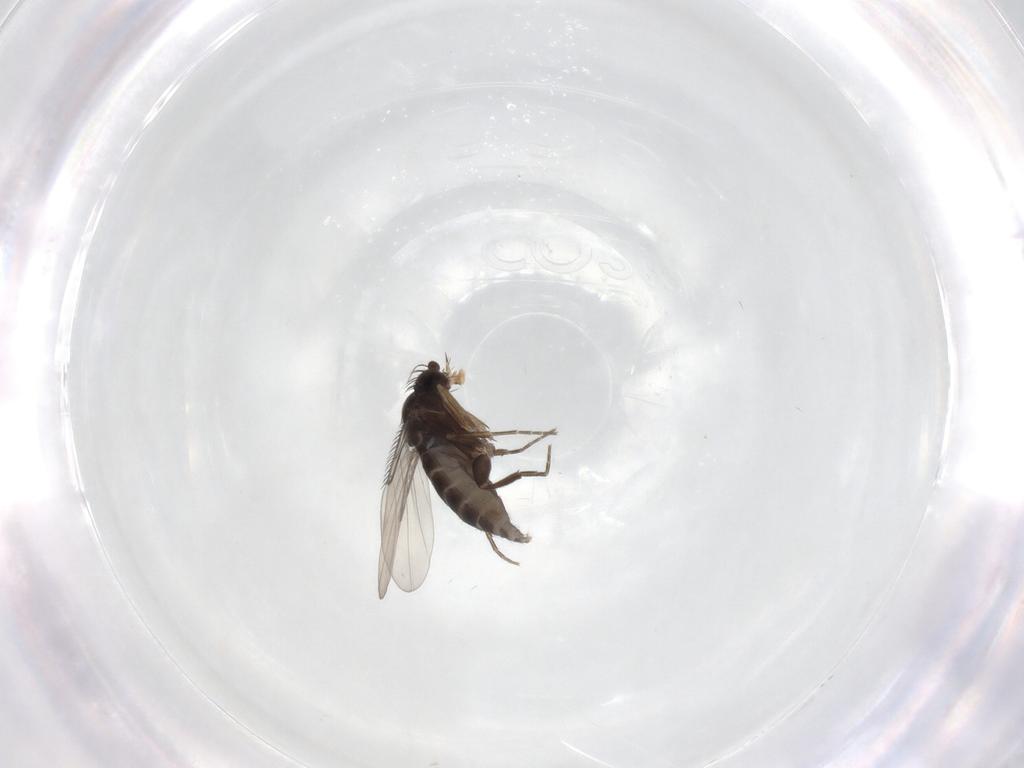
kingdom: Animalia
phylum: Arthropoda
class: Insecta
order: Diptera
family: Phoridae
